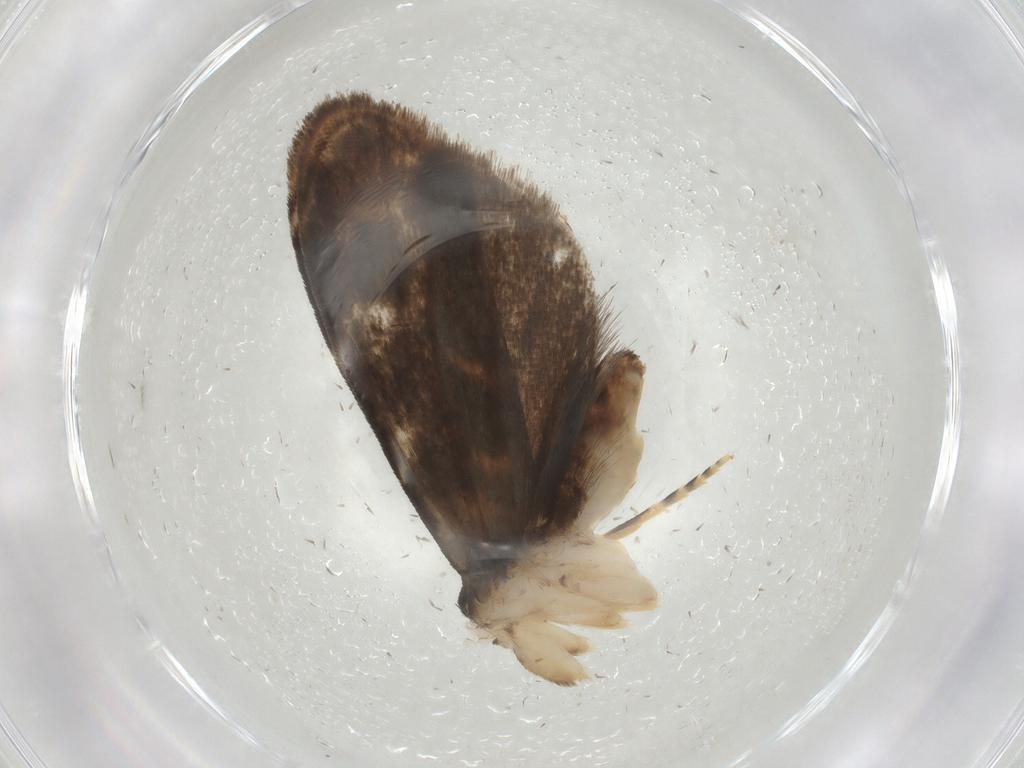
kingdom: Animalia
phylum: Arthropoda
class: Insecta
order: Lepidoptera
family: Dryadaulidae
